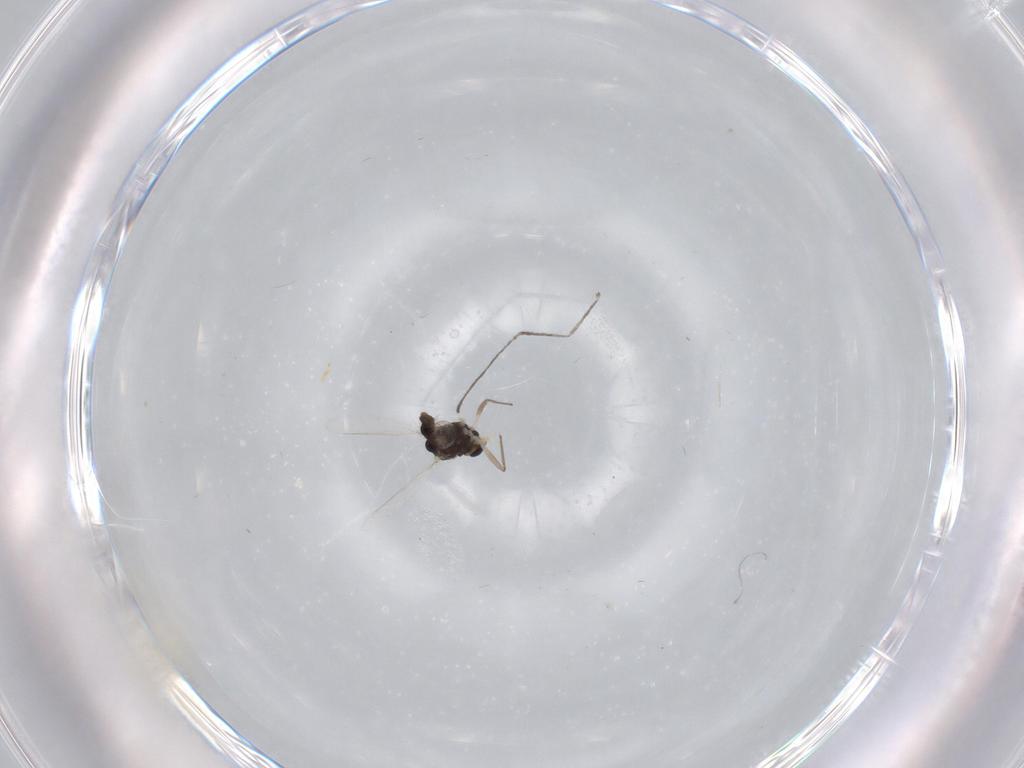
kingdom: Animalia
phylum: Arthropoda
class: Insecta
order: Diptera
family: Cecidomyiidae
